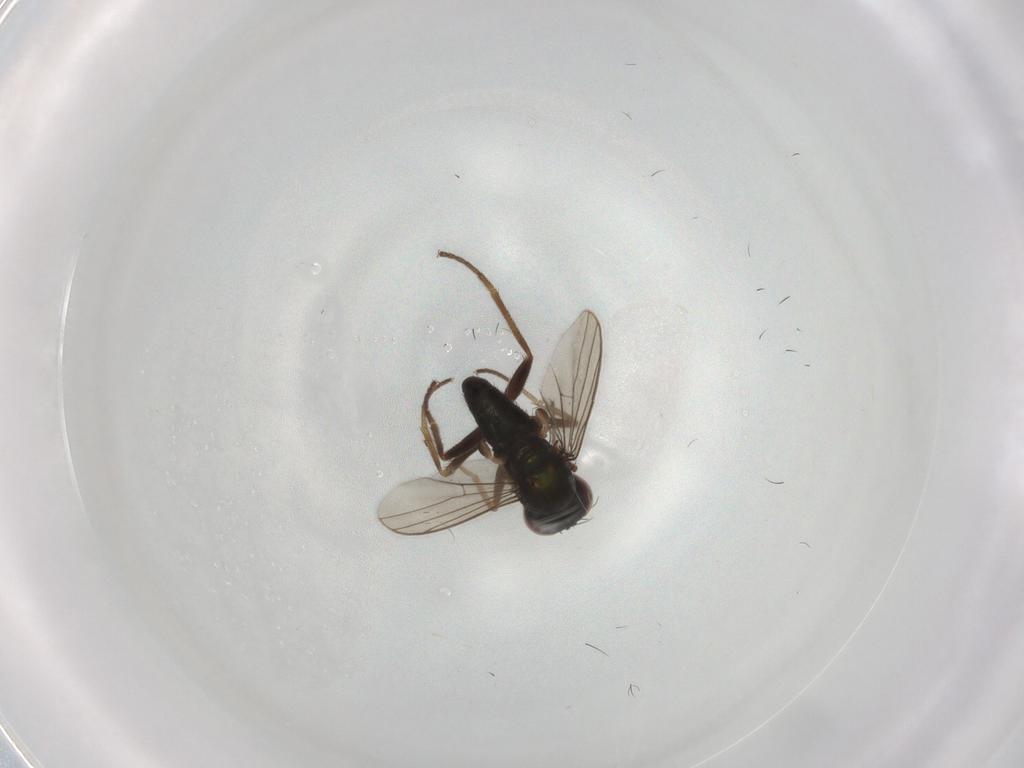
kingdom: Animalia
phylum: Arthropoda
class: Insecta
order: Diptera
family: Dolichopodidae
